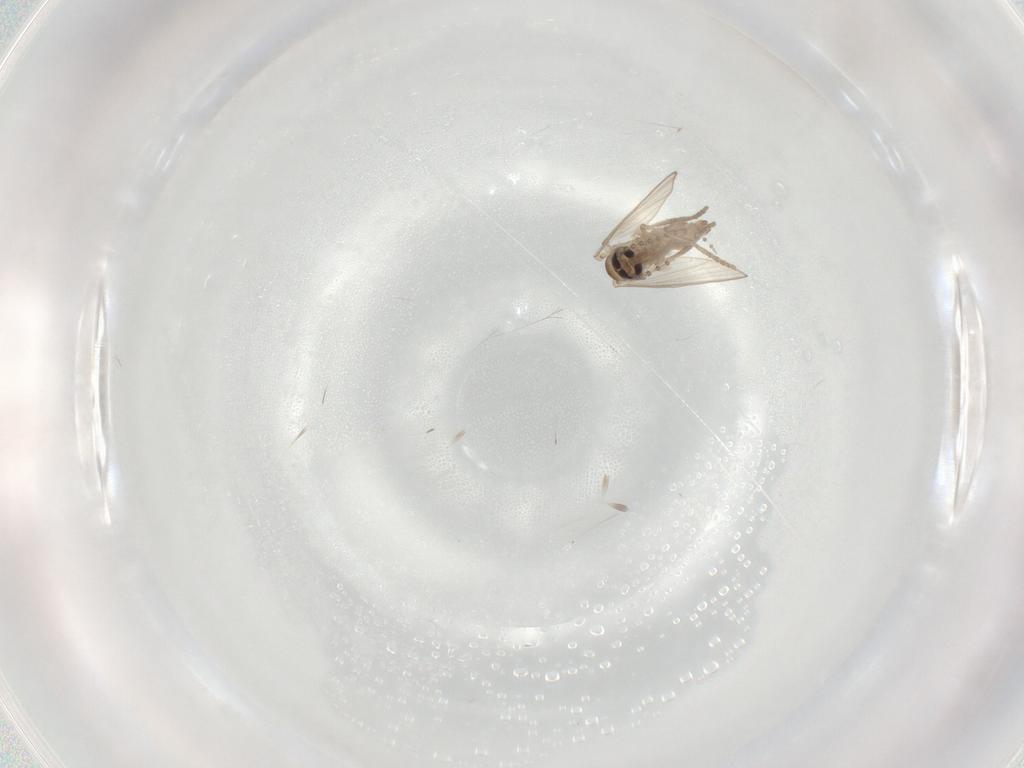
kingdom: Animalia
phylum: Arthropoda
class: Insecta
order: Diptera
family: Psychodidae
